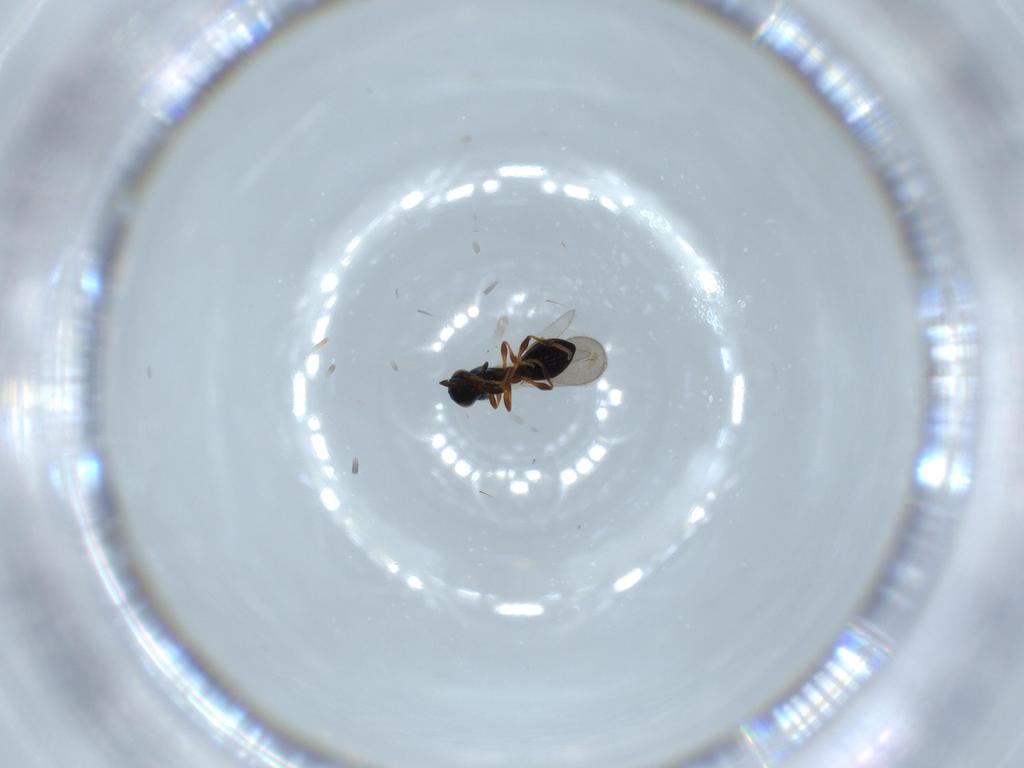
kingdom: Animalia
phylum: Arthropoda
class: Insecta
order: Hymenoptera
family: Platygastridae
